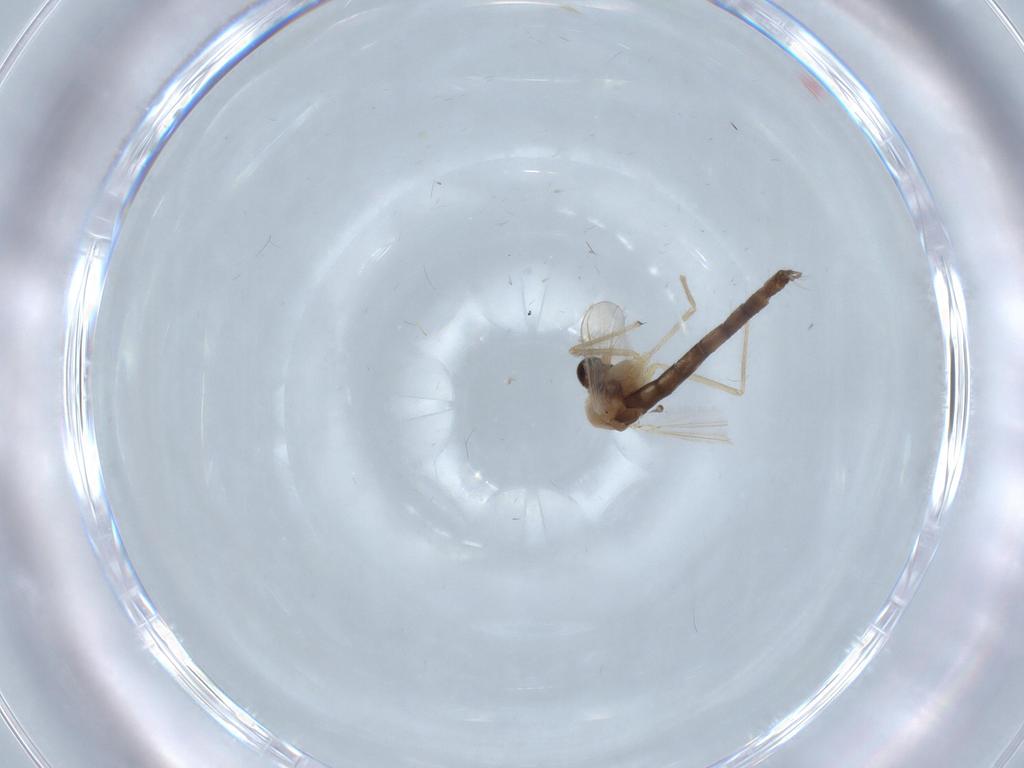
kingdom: Animalia
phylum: Arthropoda
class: Insecta
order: Diptera
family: Chironomidae
